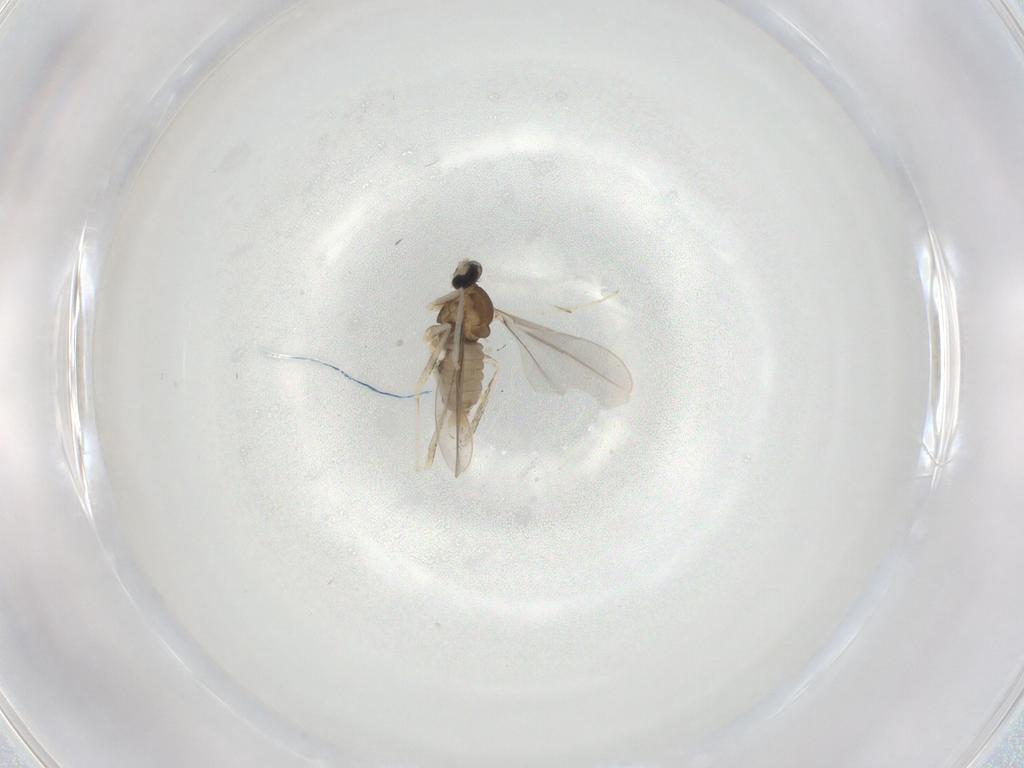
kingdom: Animalia
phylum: Arthropoda
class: Insecta
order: Diptera
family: Cecidomyiidae
